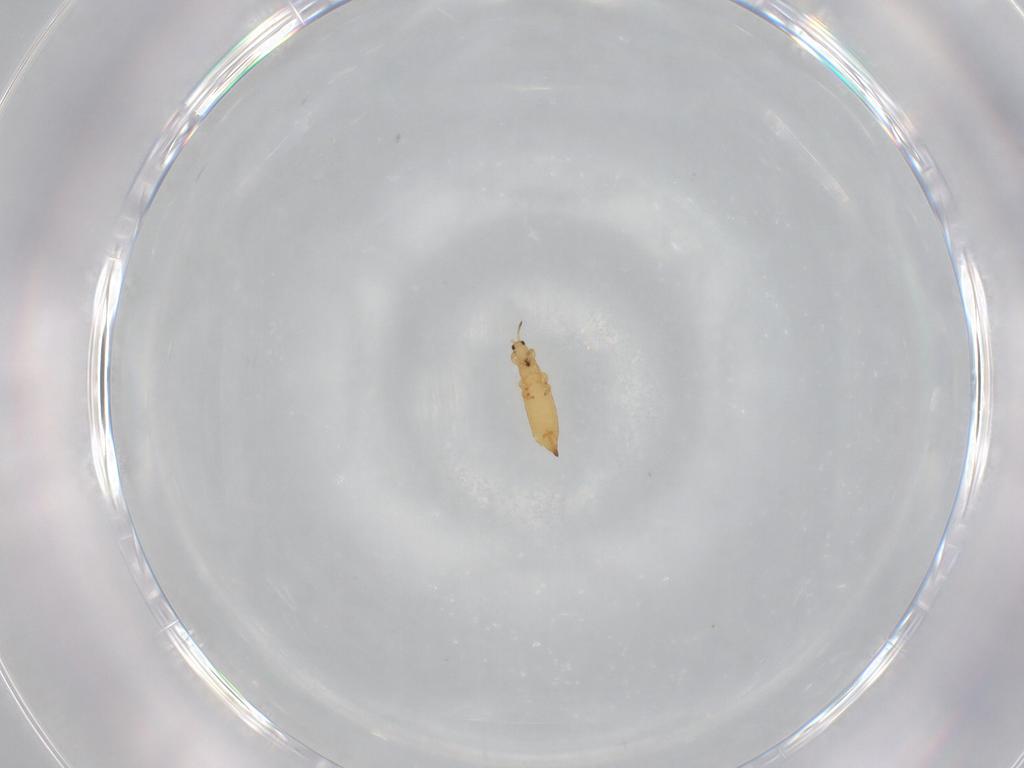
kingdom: Animalia
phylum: Arthropoda
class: Insecta
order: Thysanoptera
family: Thripidae
